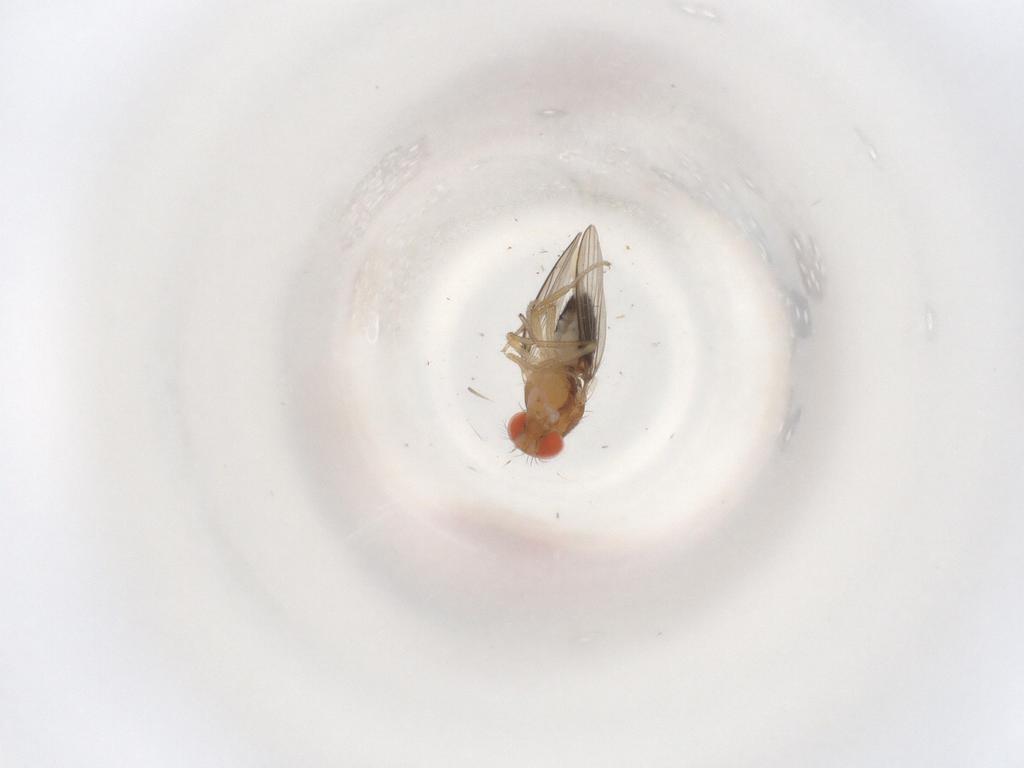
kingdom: Animalia
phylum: Arthropoda
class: Insecta
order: Diptera
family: Drosophilidae
